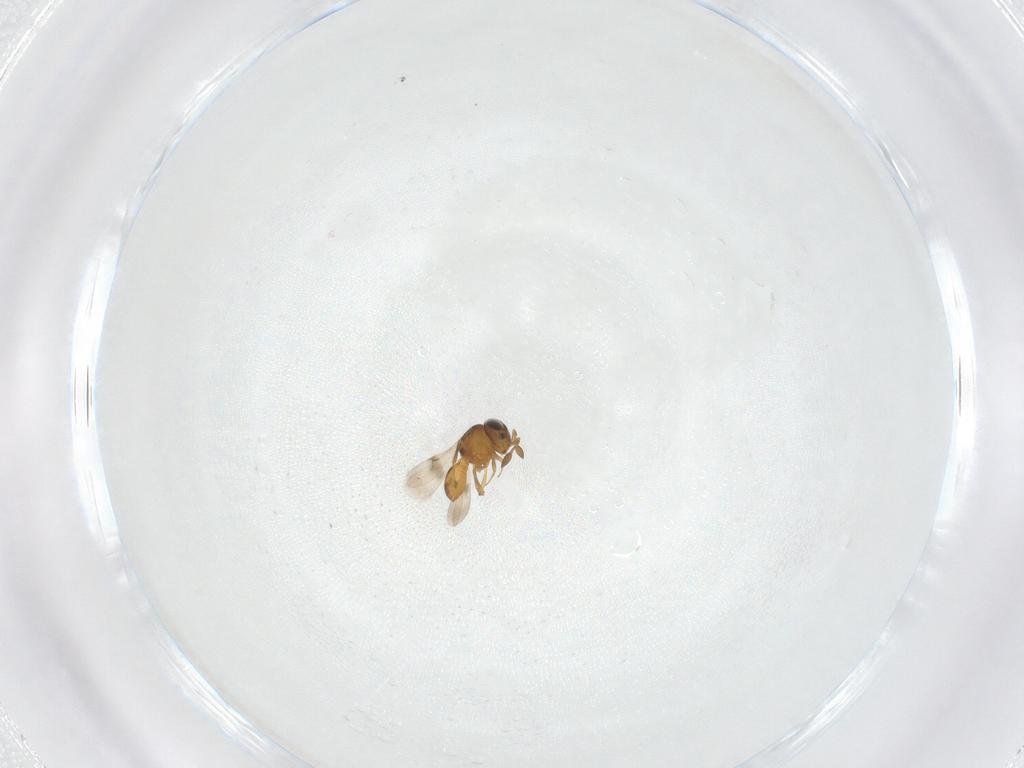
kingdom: Animalia
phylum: Arthropoda
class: Insecta
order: Hymenoptera
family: Scelionidae
